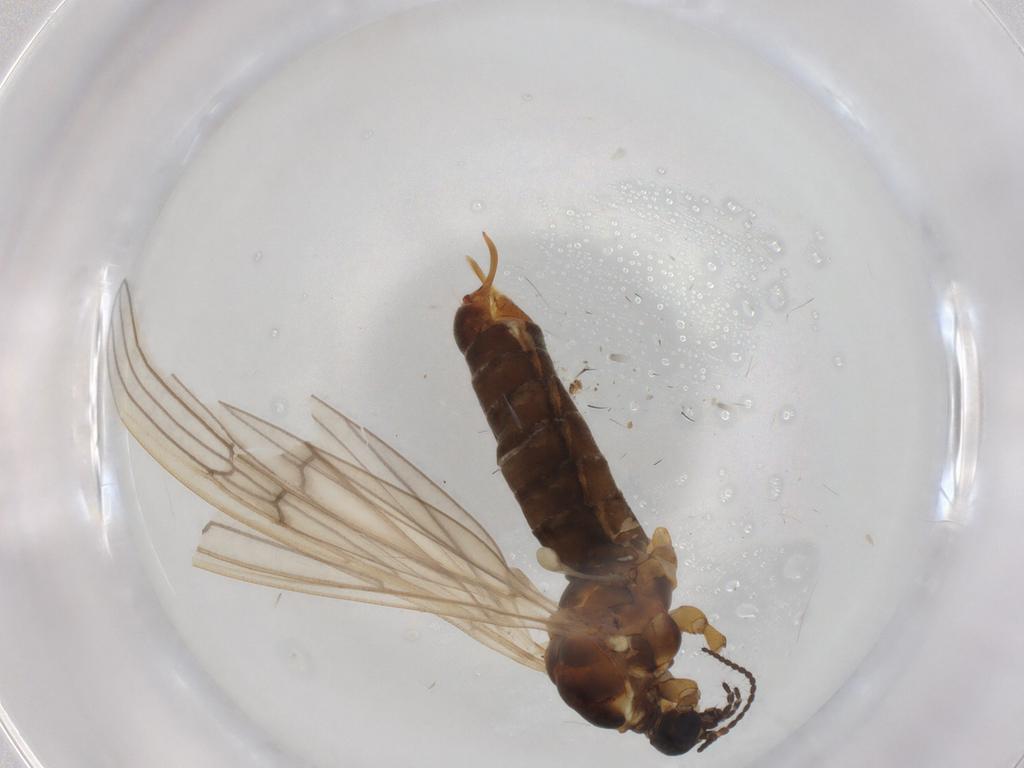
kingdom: Animalia
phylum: Arthropoda
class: Insecta
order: Diptera
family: Limoniidae
